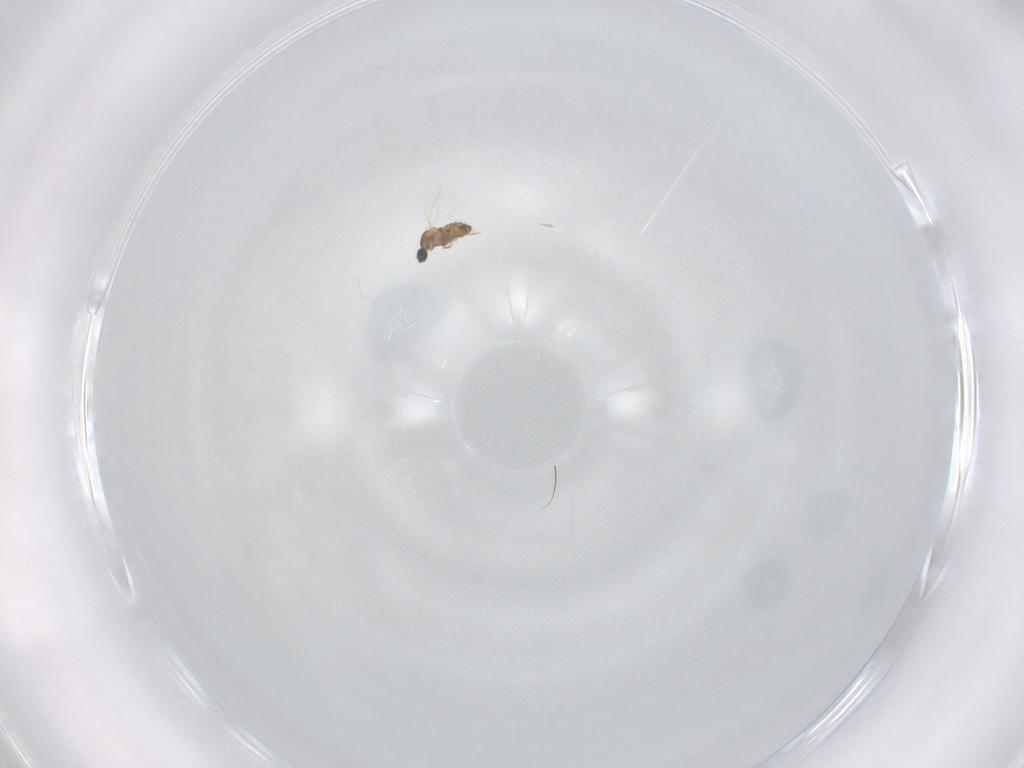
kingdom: Animalia
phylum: Arthropoda
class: Insecta
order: Diptera
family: Cecidomyiidae
